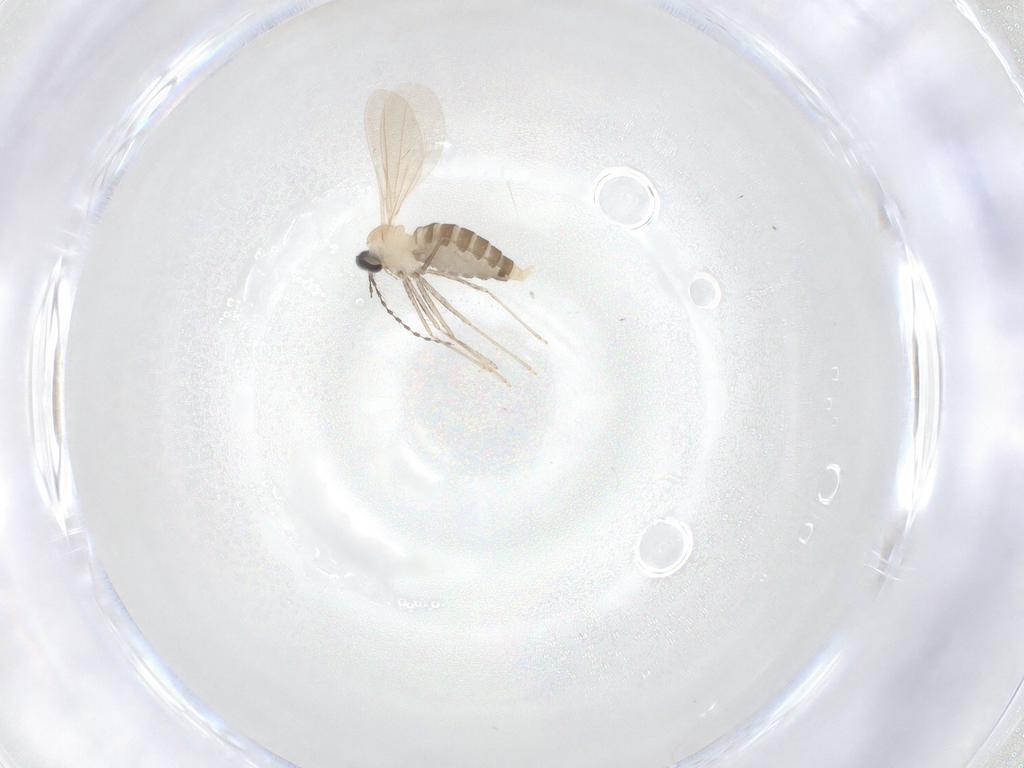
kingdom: Animalia
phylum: Arthropoda
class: Insecta
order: Diptera
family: Cecidomyiidae
